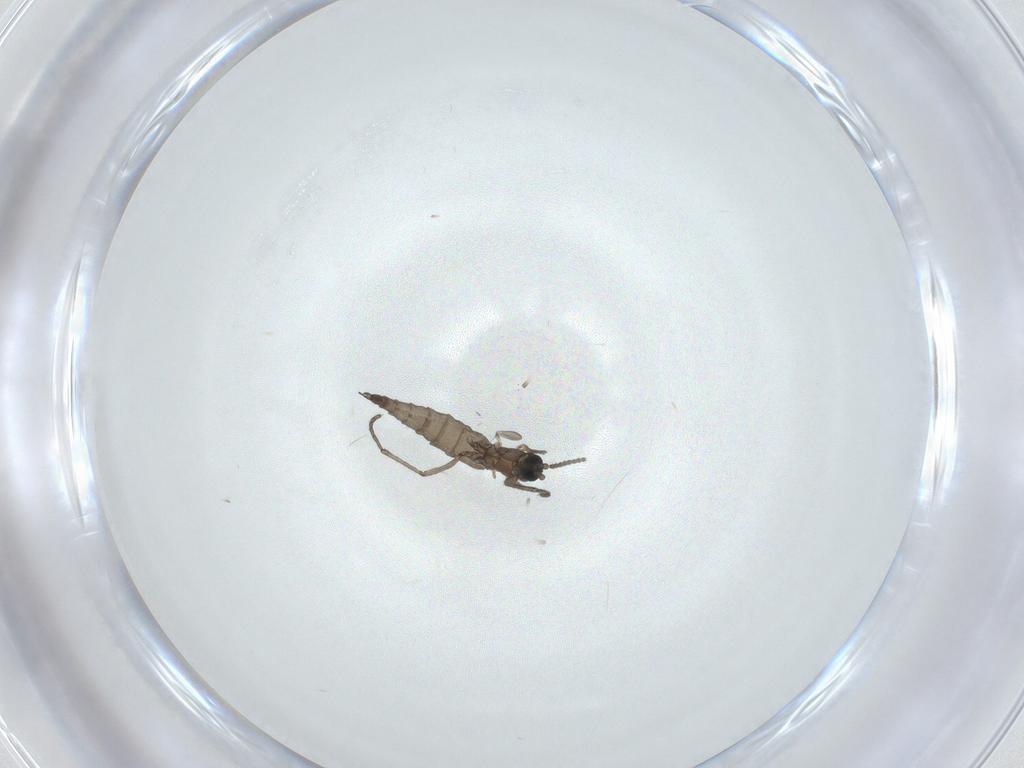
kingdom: Animalia
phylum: Arthropoda
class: Insecta
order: Diptera
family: Sciaridae
